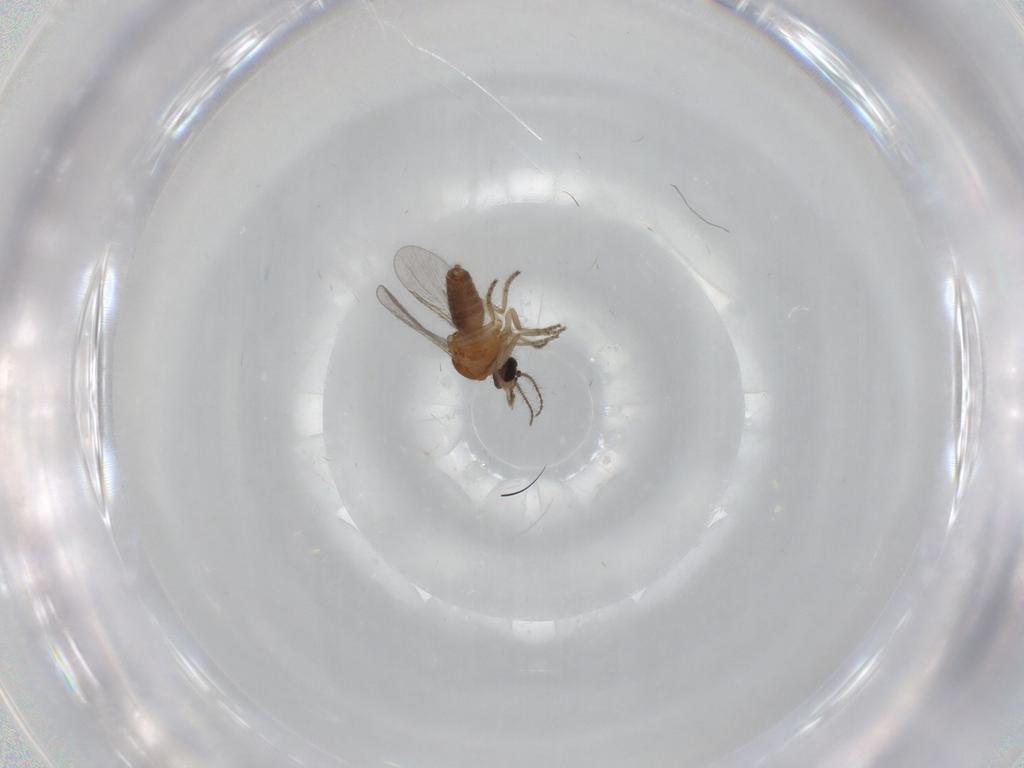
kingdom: Animalia
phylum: Arthropoda
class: Insecta
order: Diptera
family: Ceratopogonidae
